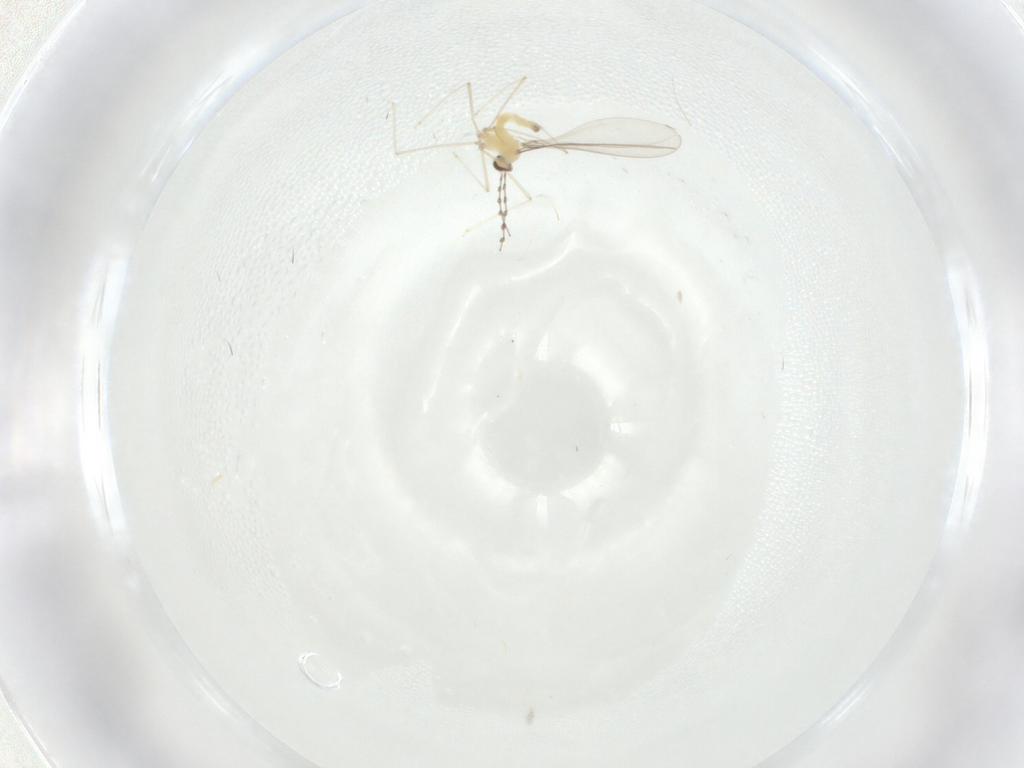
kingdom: Animalia
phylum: Arthropoda
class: Insecta
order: Diptera
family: Cecidomyiidae
